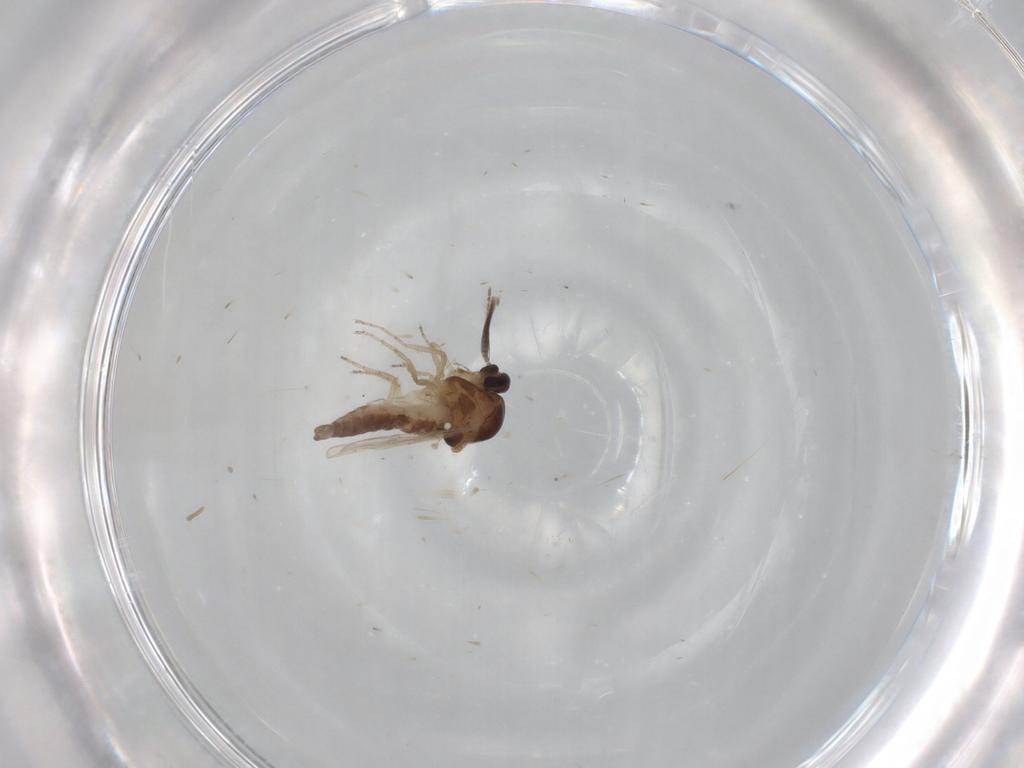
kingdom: Animalia
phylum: Arthropoda
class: Insecta
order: Diptera
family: Ceratopogonidae
